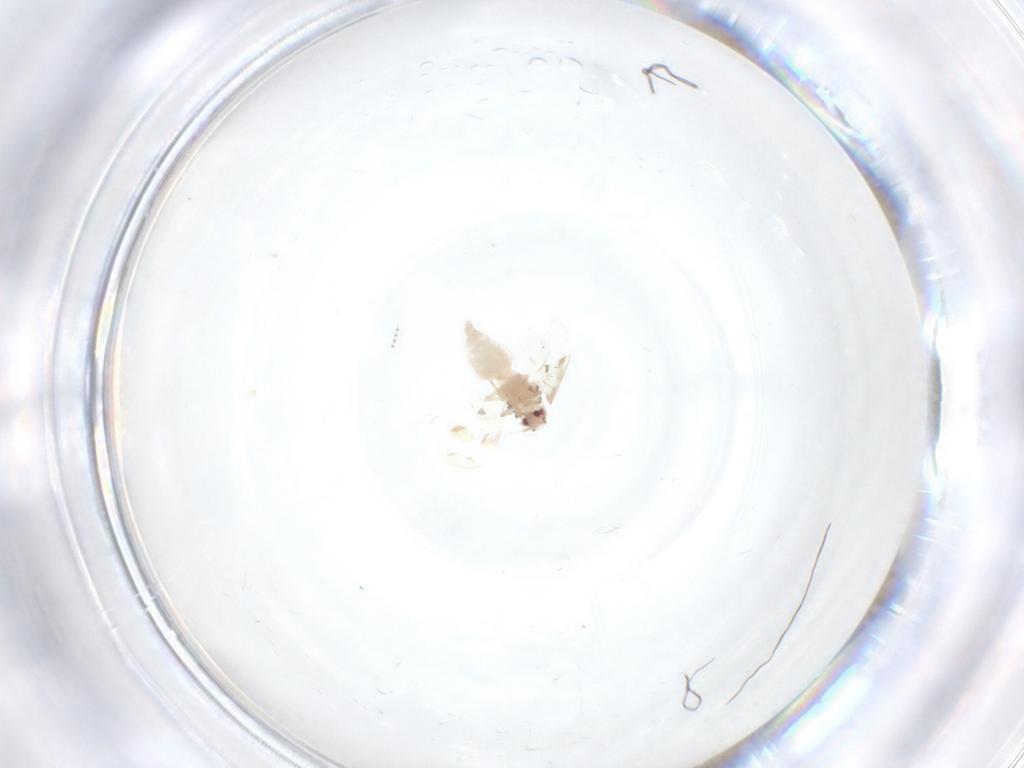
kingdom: Animalia
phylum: Arthropoda
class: Insecta
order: Hemiptera
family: Aleyrodidae
